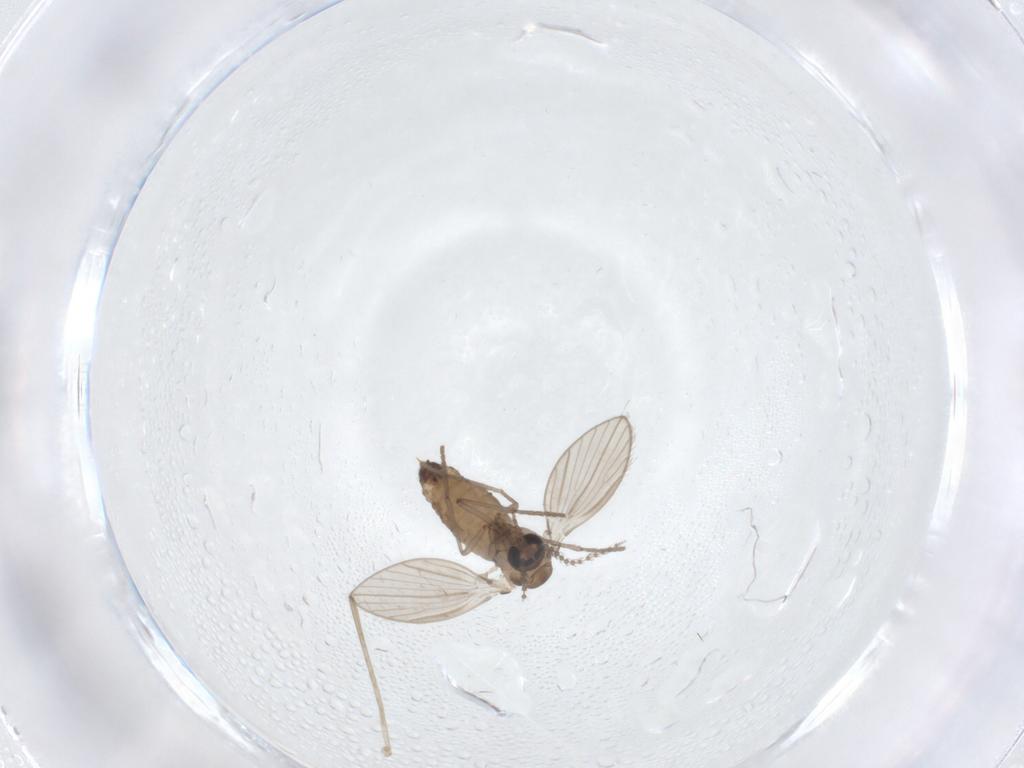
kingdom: Animalia
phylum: Arthropoda
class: Insecta
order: Diptera
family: Psychodidae
